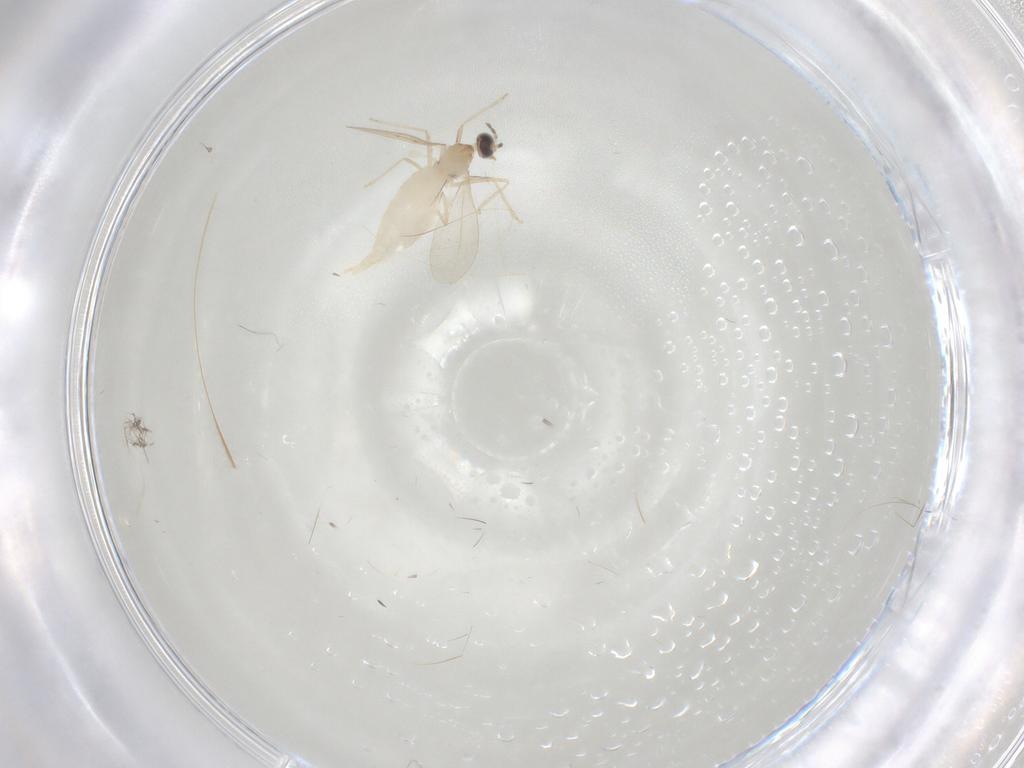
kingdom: Animalia
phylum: Arthropoda
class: Insecta
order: Diptera
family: Cecidomyiidae
